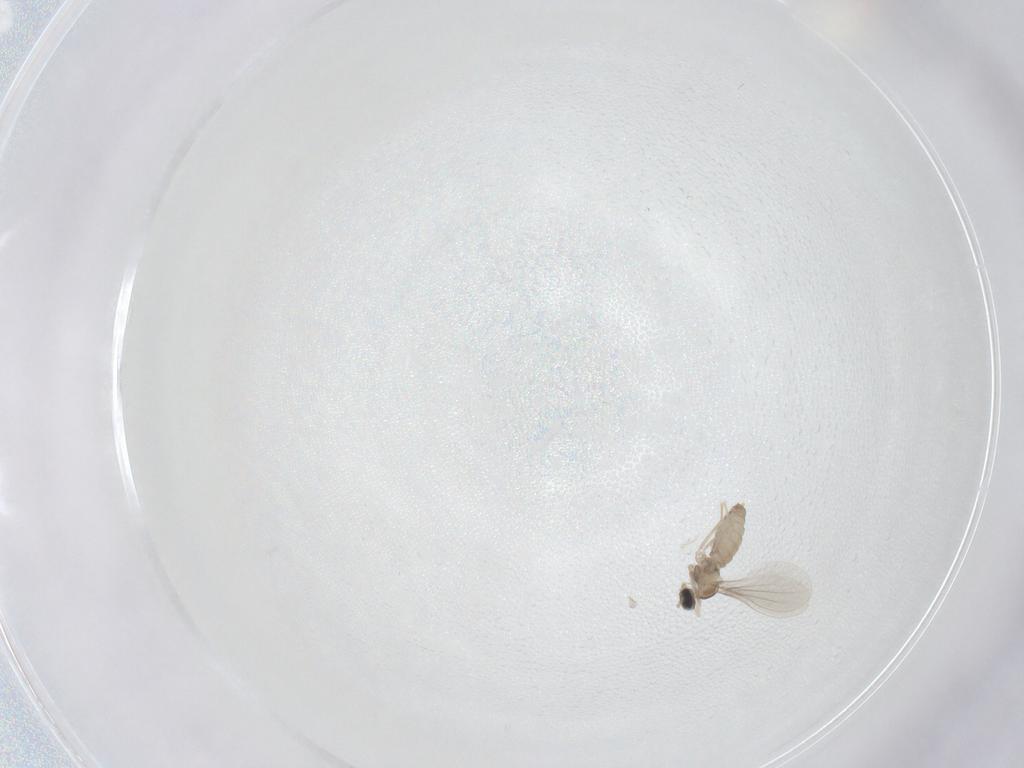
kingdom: Animalia
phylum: Arthropoda
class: Insecta
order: Diptera
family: Cecidomyiidae
